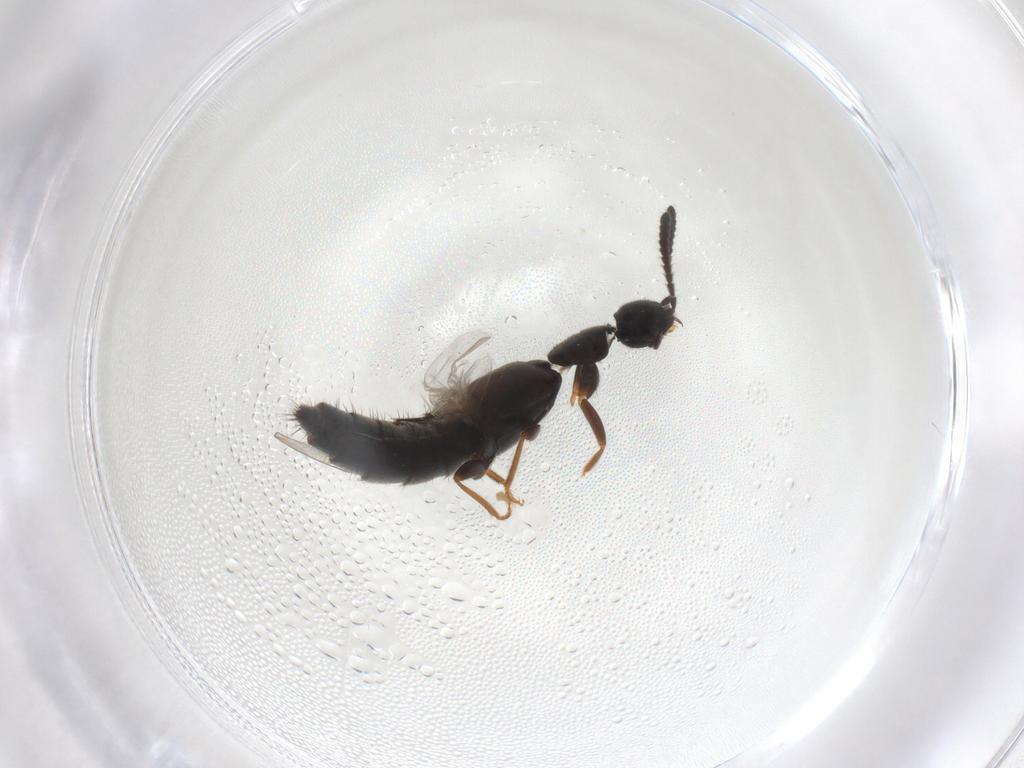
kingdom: Animalia
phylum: Arthropoda
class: Insecta
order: Coleoptera
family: Staphylinidae
